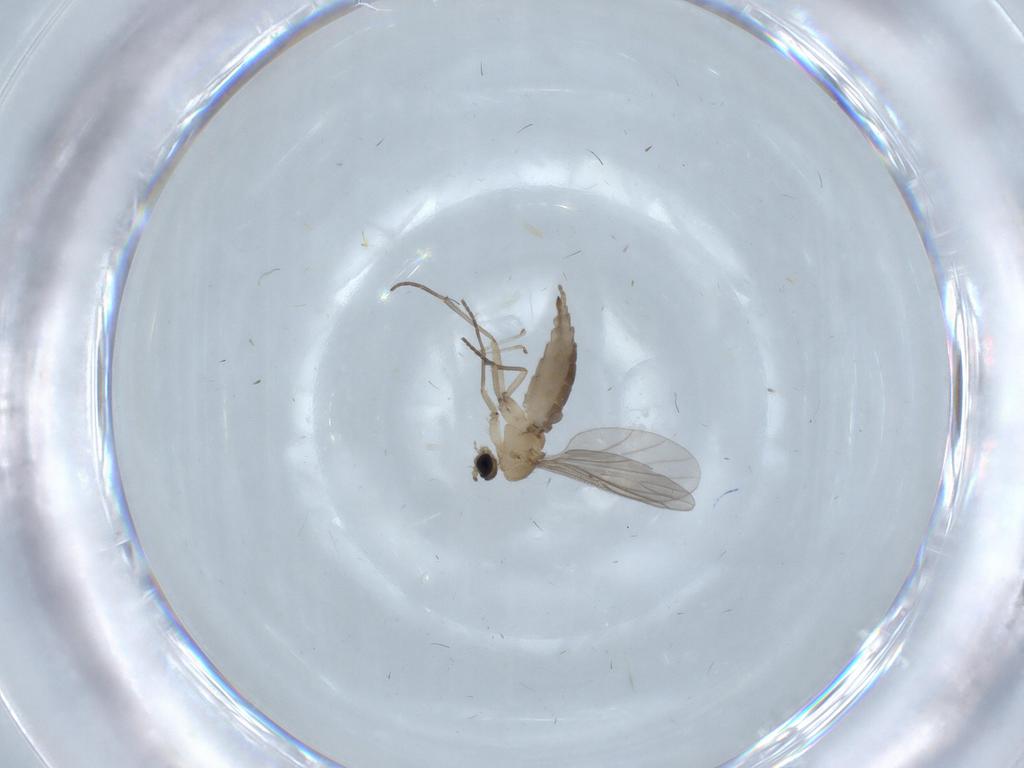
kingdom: Animalia
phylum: Arthropoda
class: Insecta
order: Diptera
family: Sciaridae
